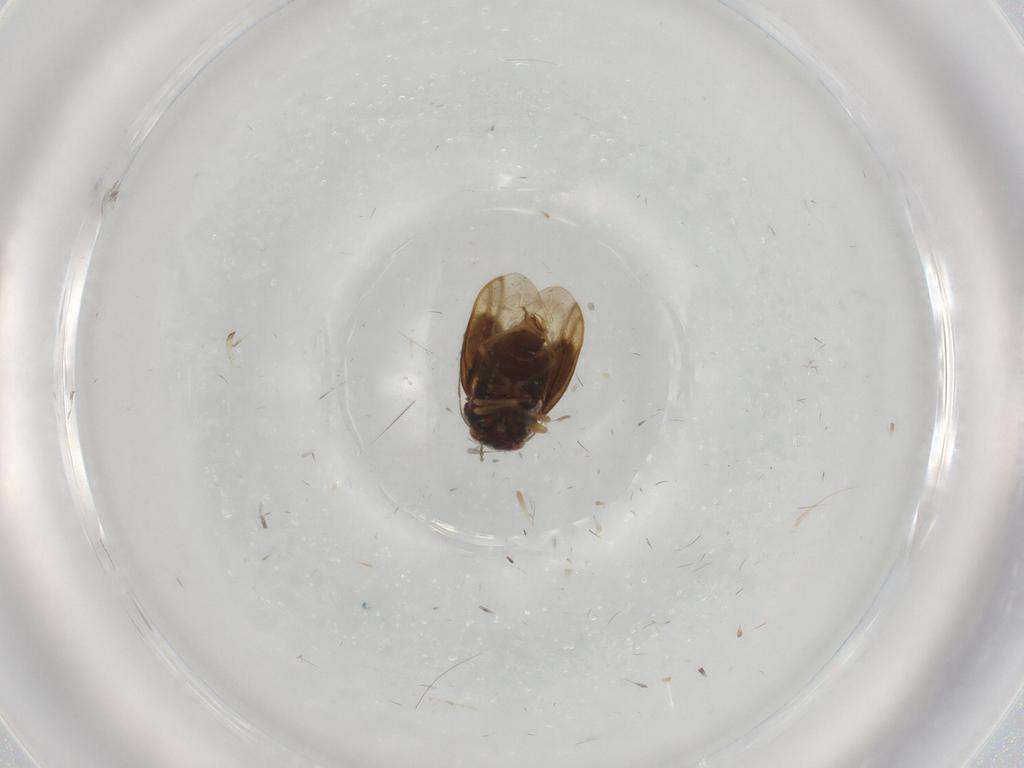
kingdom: Animalia
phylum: Arthropoda
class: Insecta
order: Hemiptera
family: Schizopteridae
